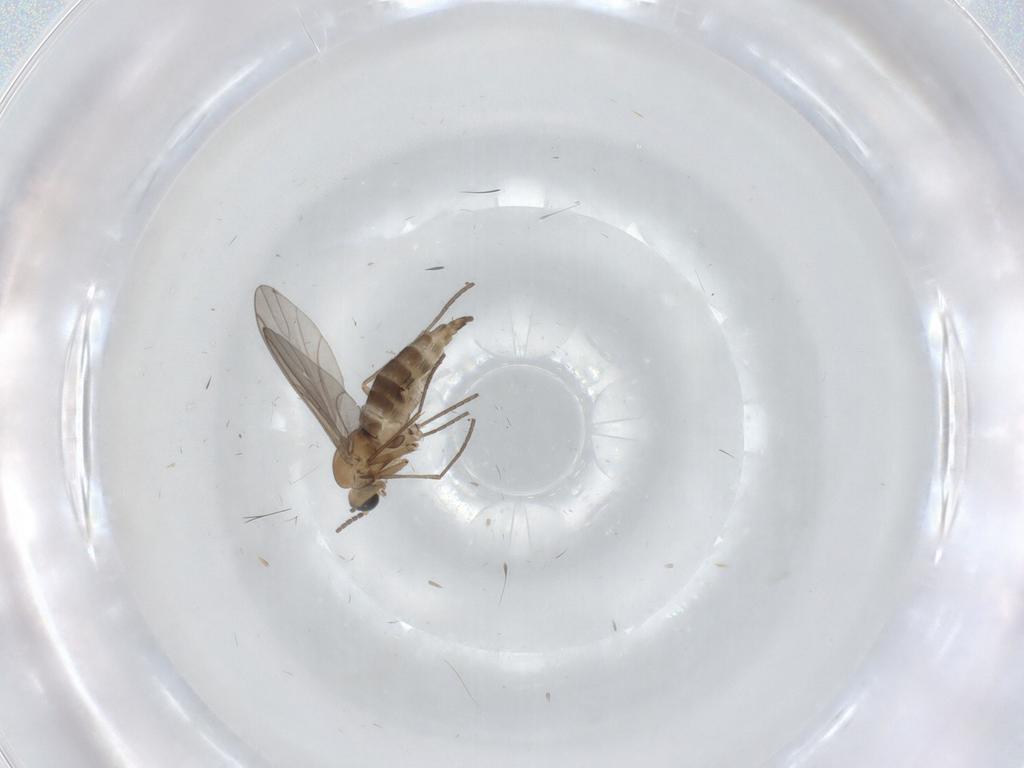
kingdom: Animalia
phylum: Arthropoda
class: Insecta
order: Diptera
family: Sciaridae
